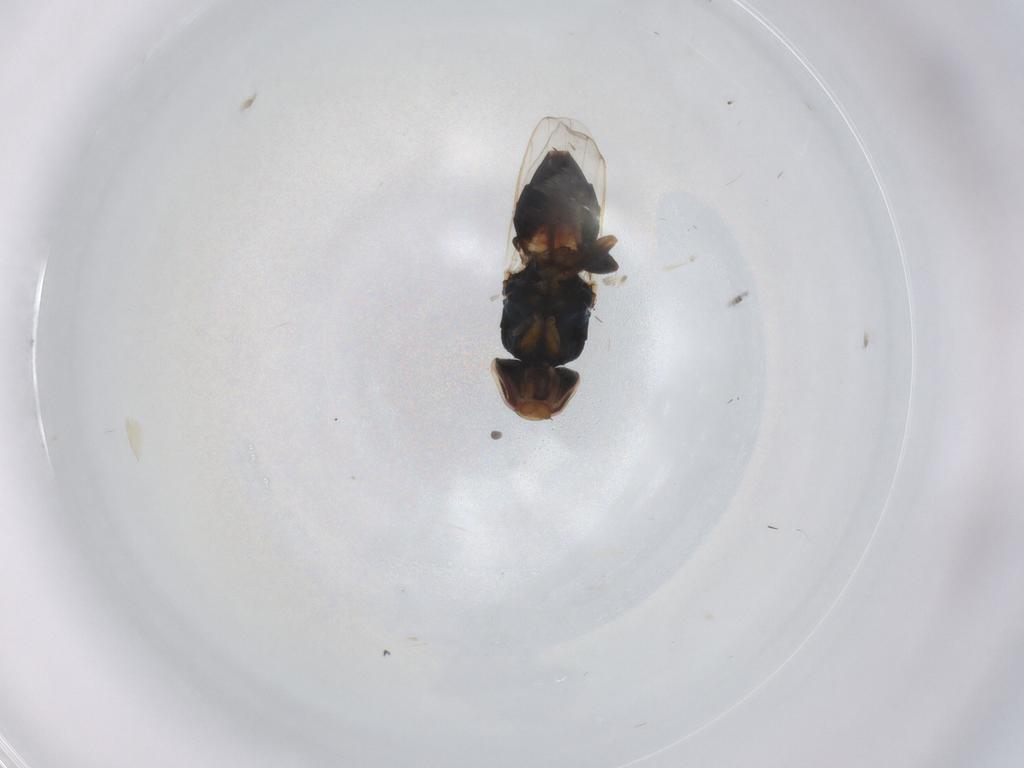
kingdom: Animalia
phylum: Arthropoda
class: Insecta
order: Diptera
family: Chloropidae
